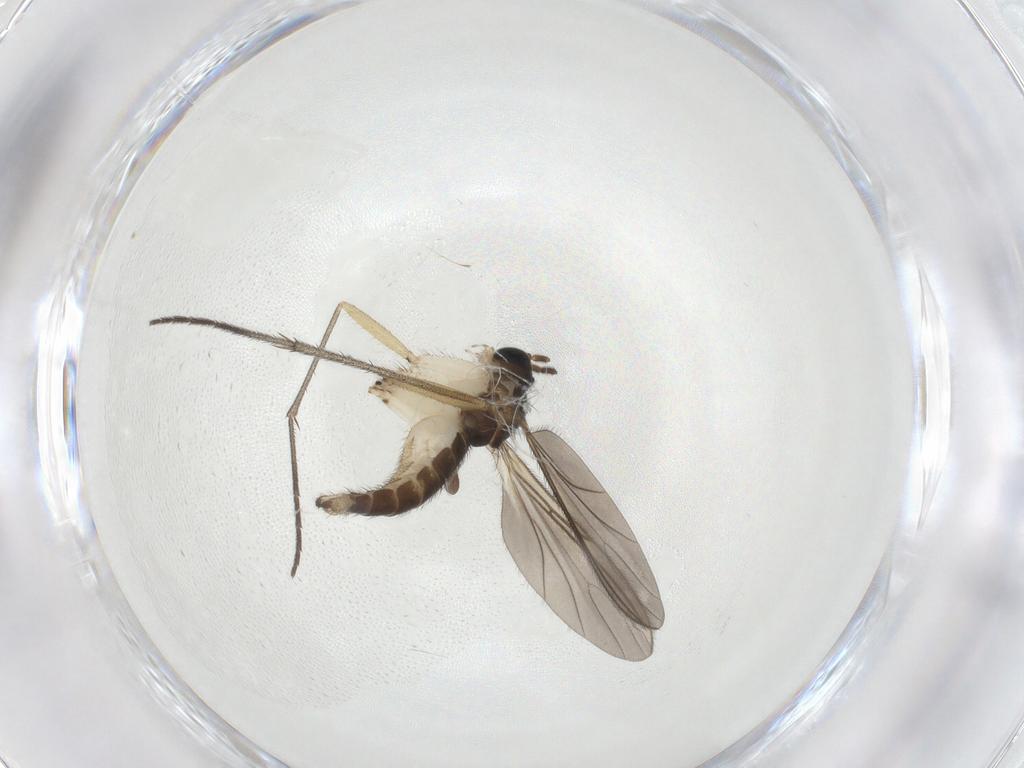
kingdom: Animalia
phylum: Arthropoda
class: Insecta
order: Diptera
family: Sciaridae
